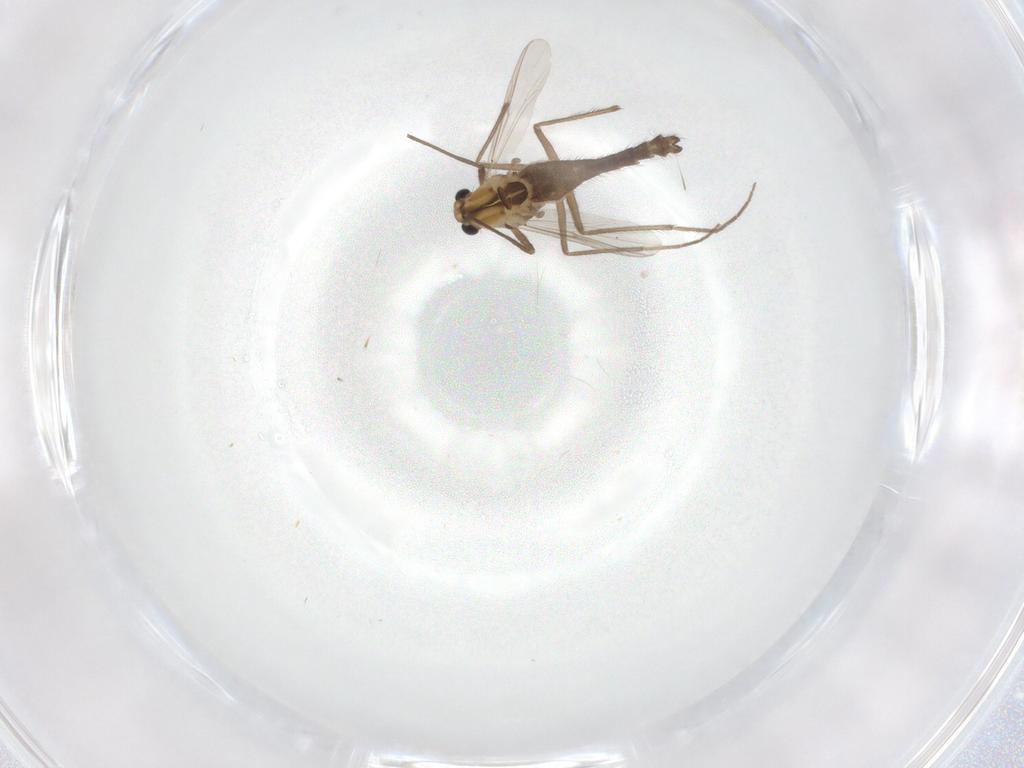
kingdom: Animalia
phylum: Arthropoda
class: Insecta
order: Diptera
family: Chironomidae
